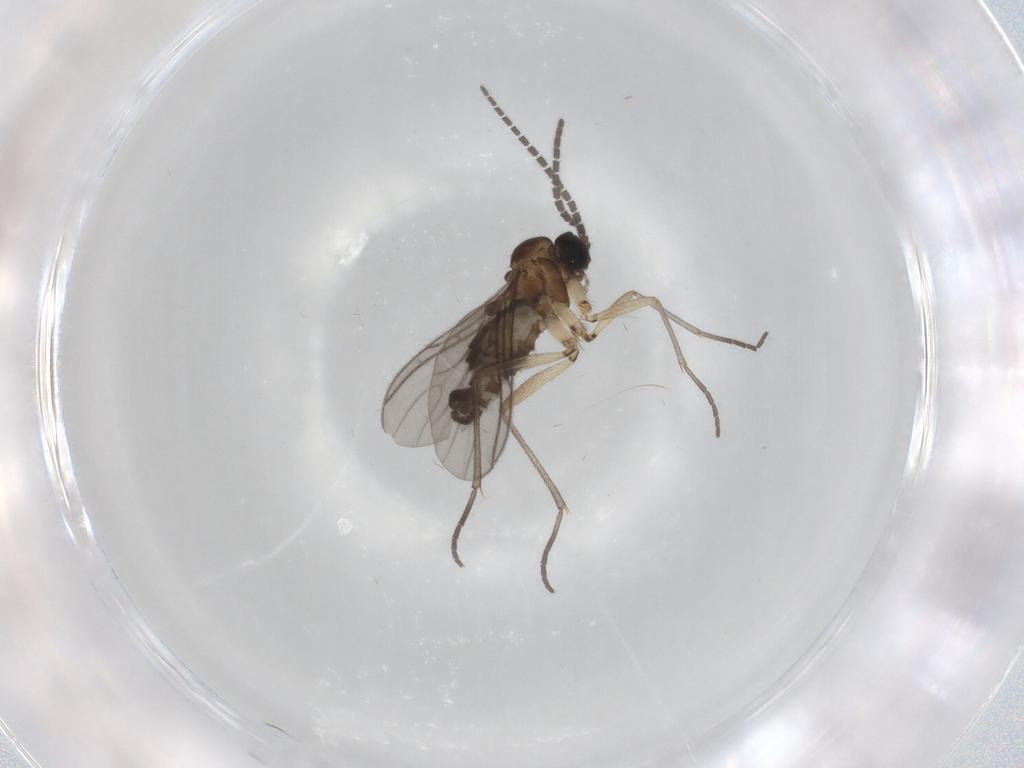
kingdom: Animalia
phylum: Arthropoda
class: Insecta
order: Diptera
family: Sciaridae
